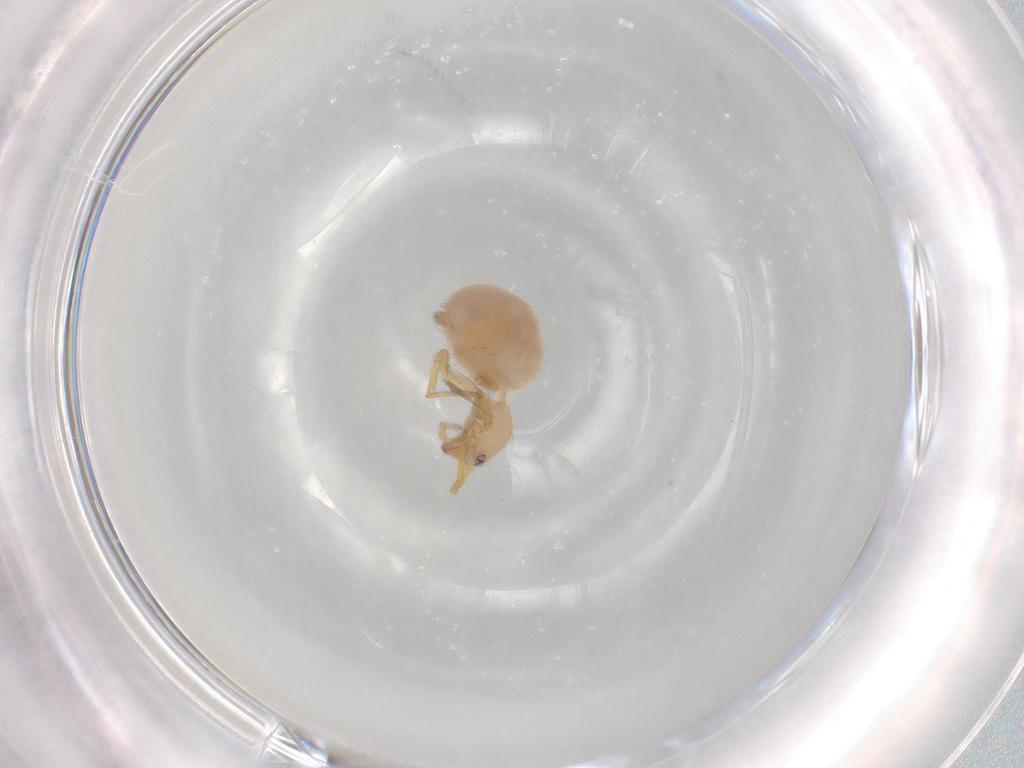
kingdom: Animalia
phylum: Arthropoda
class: Arachnida
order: Araneae
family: Oonopidae
